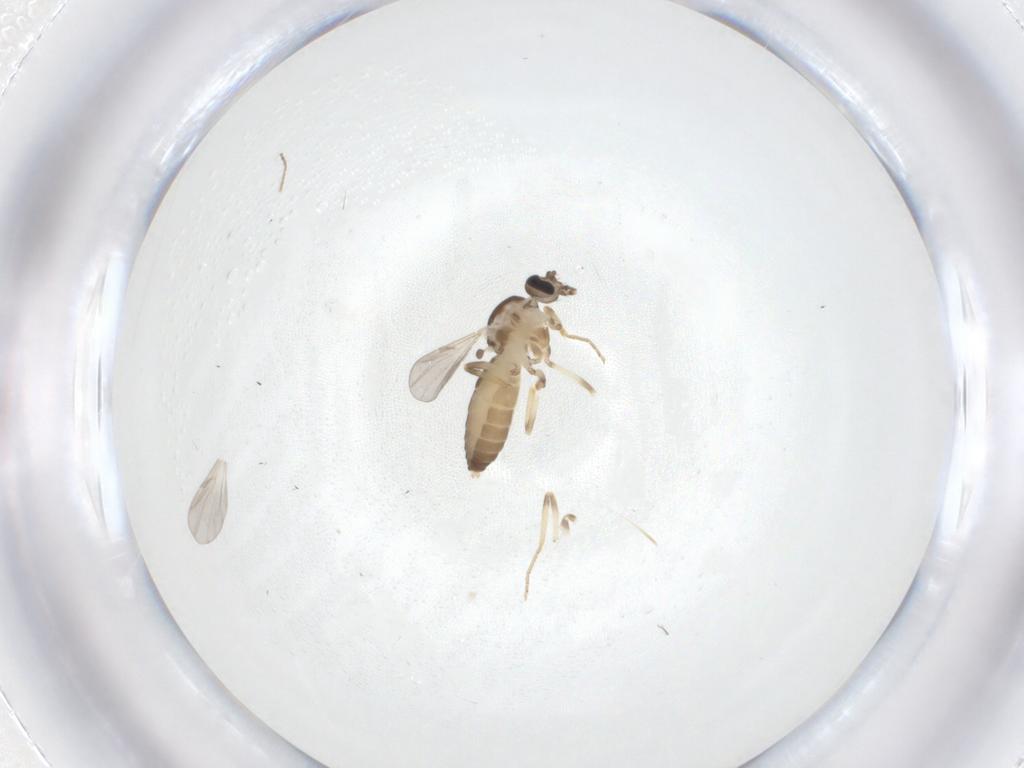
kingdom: Animalia
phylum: Arthropoda
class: Insecta
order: Diptera
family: Ceratopogonidae
